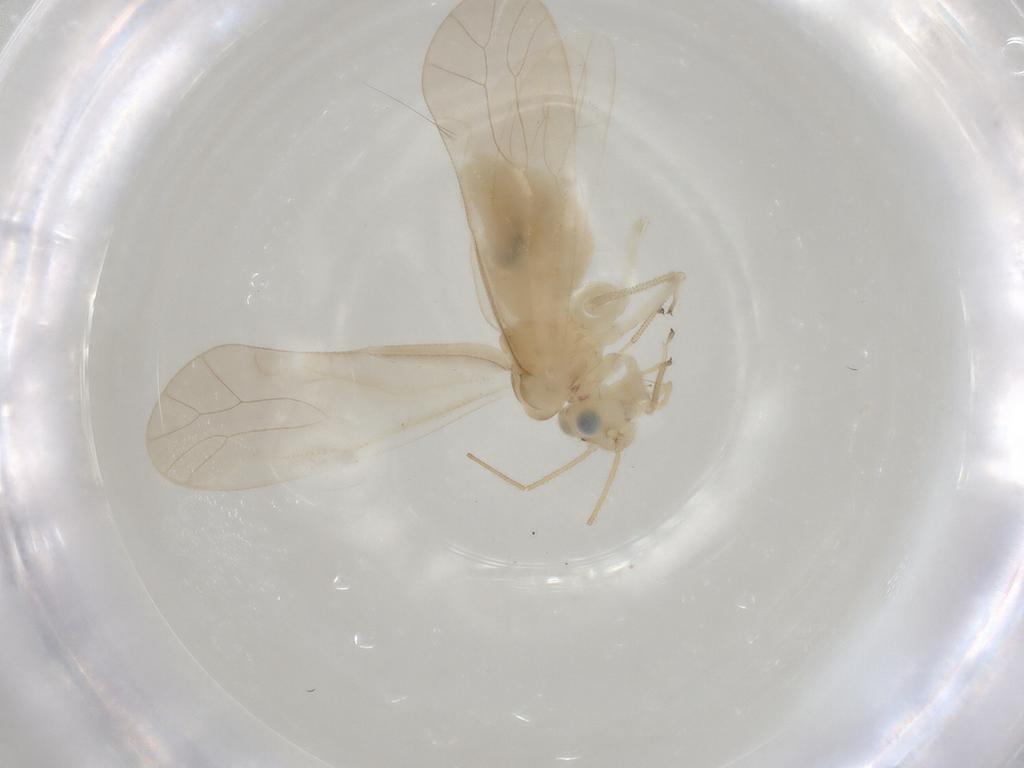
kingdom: Animalia
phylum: Arthropoda
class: Insecta
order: Psocodea
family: Caeciliusidae
